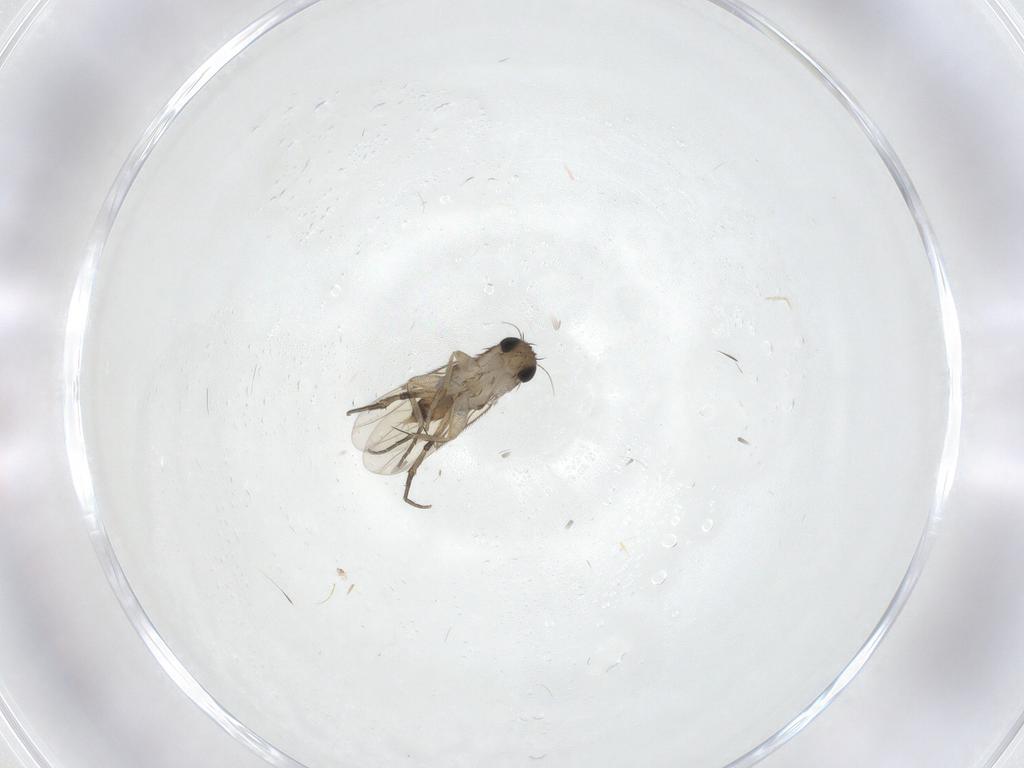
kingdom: Animalia
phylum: Arthropoda
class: Insecta
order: Diptera
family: Phoridae
